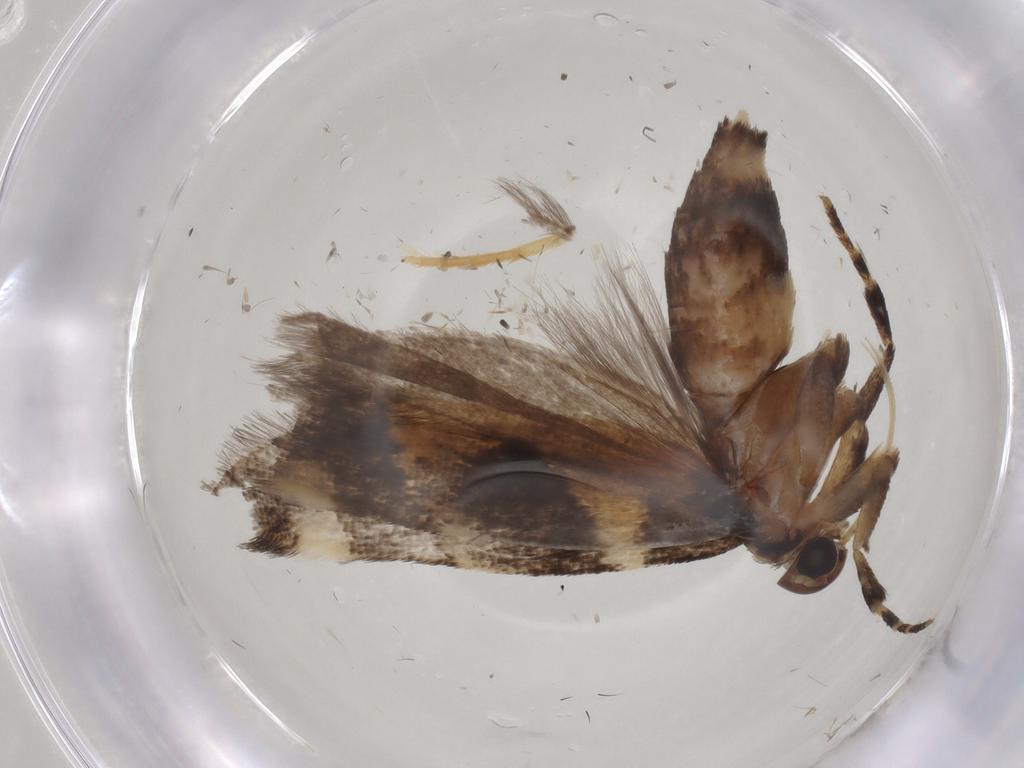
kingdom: Animalia
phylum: Arthropoda
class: Insecta
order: Lepidoptera
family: Gelechiidae
